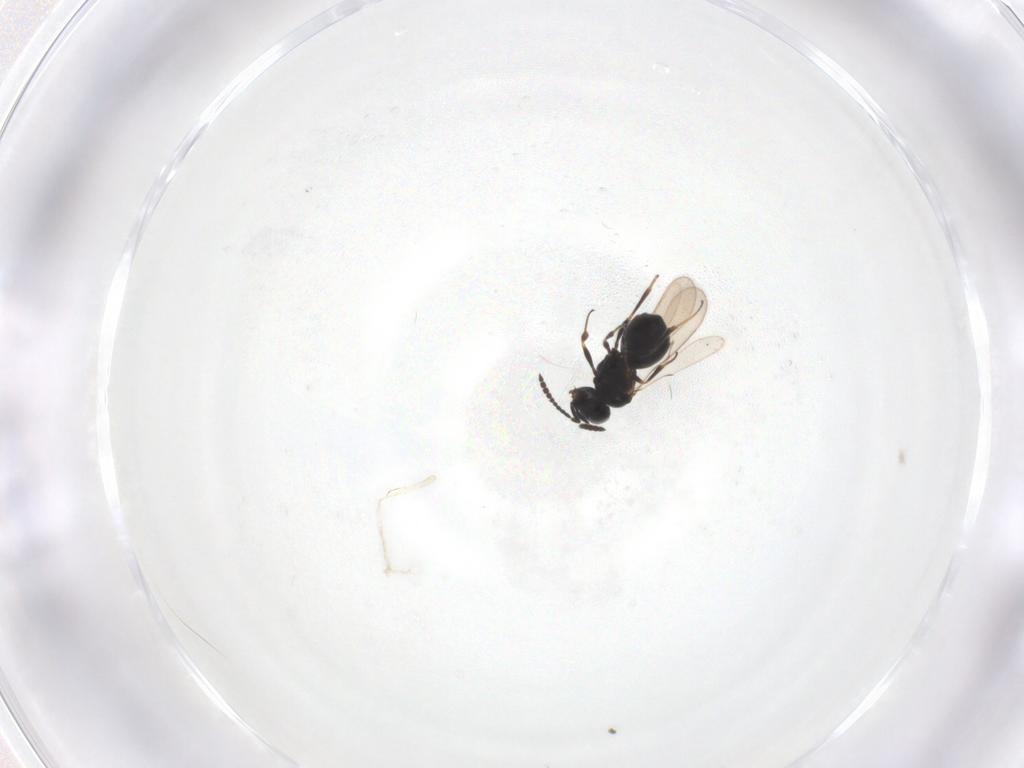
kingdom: Animalia
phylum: Arthropoda
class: Insecta
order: Hymenoptera
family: Scelionidae
